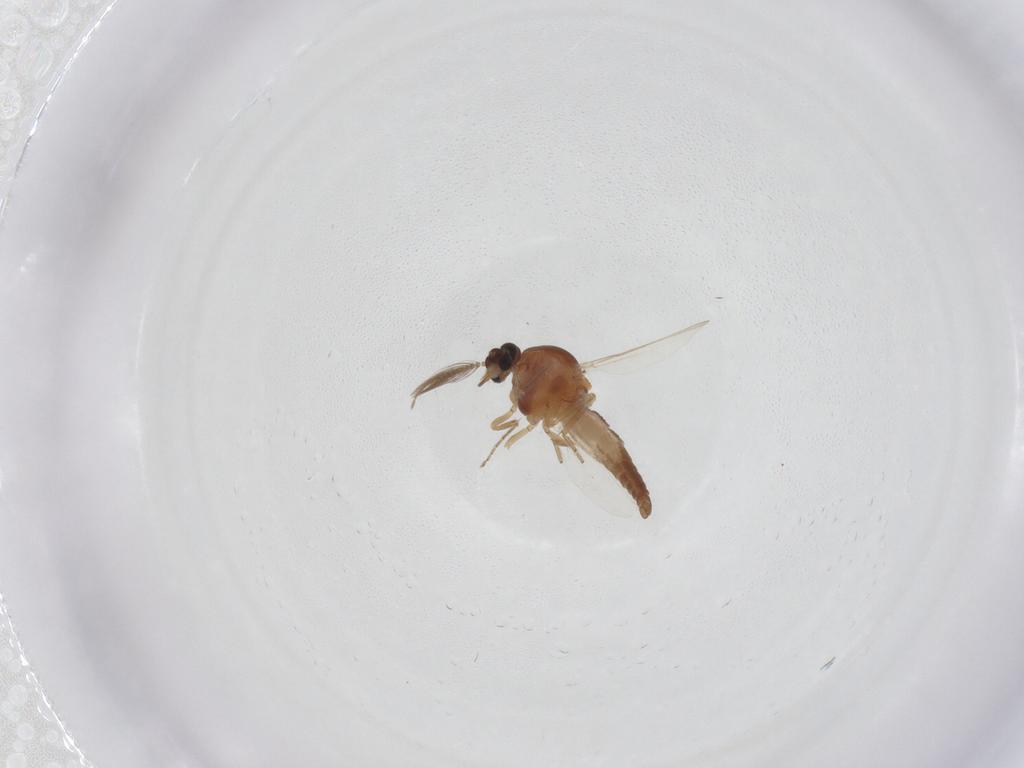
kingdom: Animalia
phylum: Arthropoda
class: Insecta
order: Diptera
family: Ceratopogonidae
